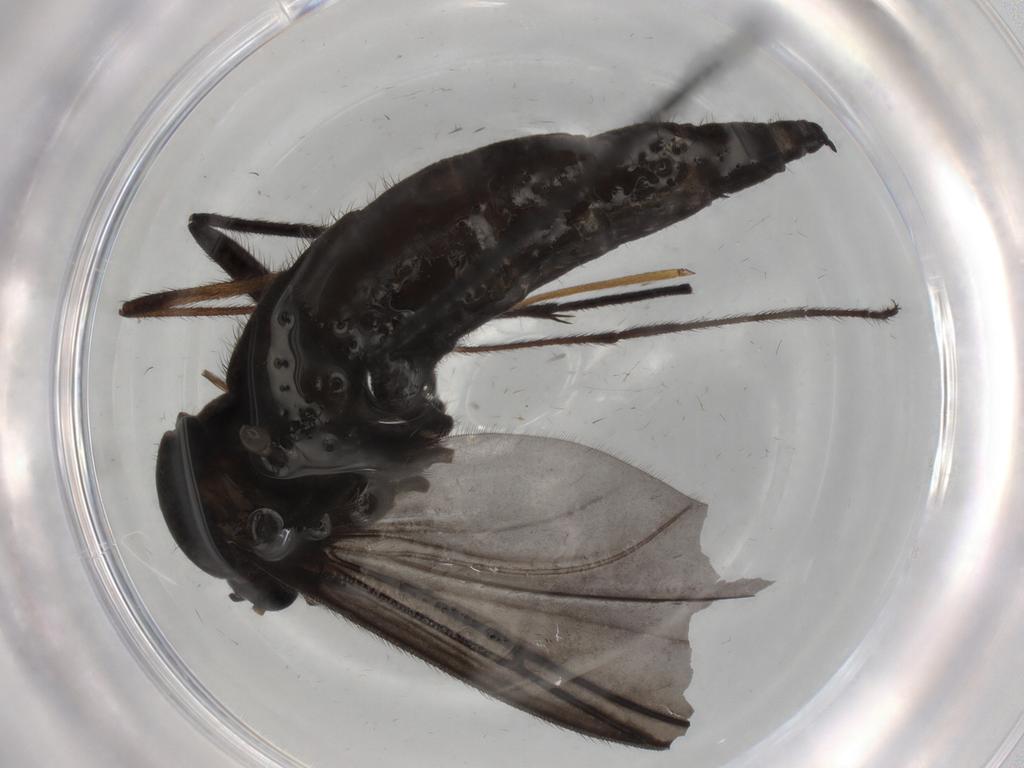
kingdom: Animalia
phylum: Arthropoda
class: Insecta
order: Diptera
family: Sciaridae
